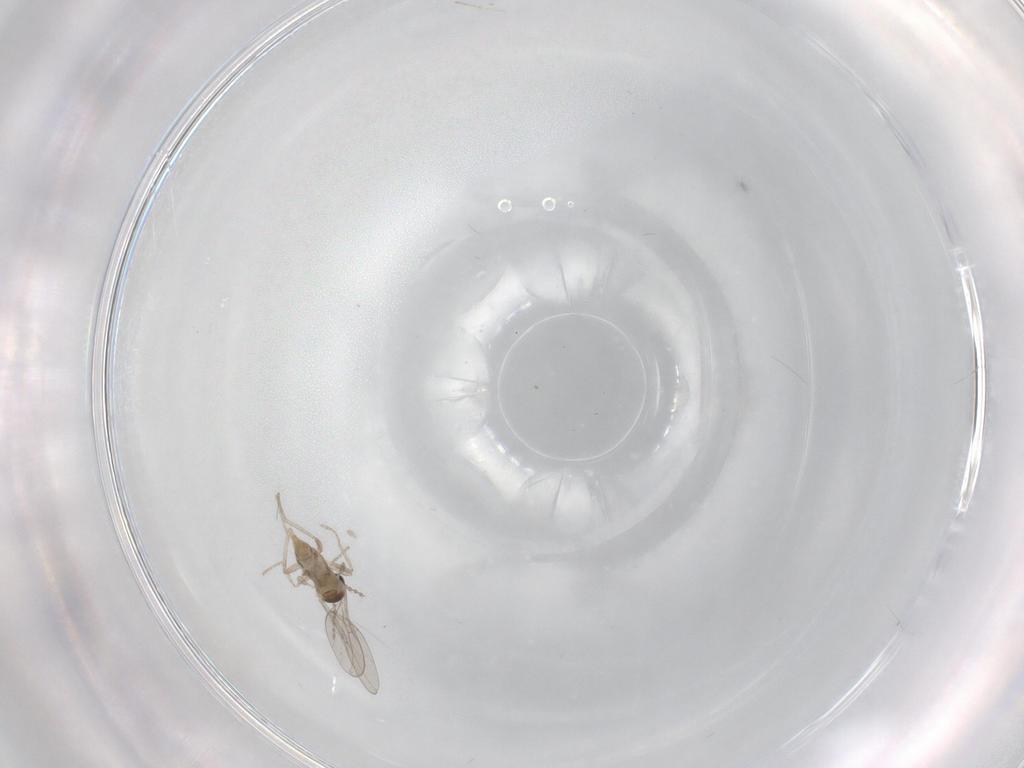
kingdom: Animalia
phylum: Arthropoda
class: Insecta
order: Diptera
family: Cecidomyiidae
